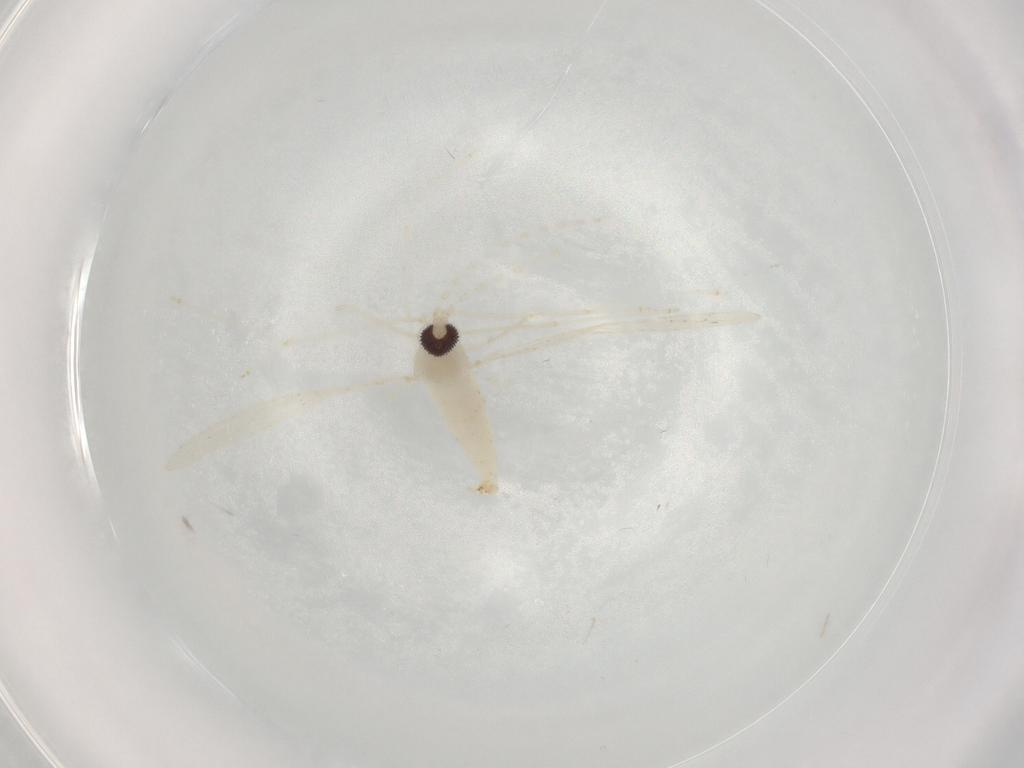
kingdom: Animalia
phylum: Arthropoda
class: Insecta
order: Diptera
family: Cecidomyiidae
